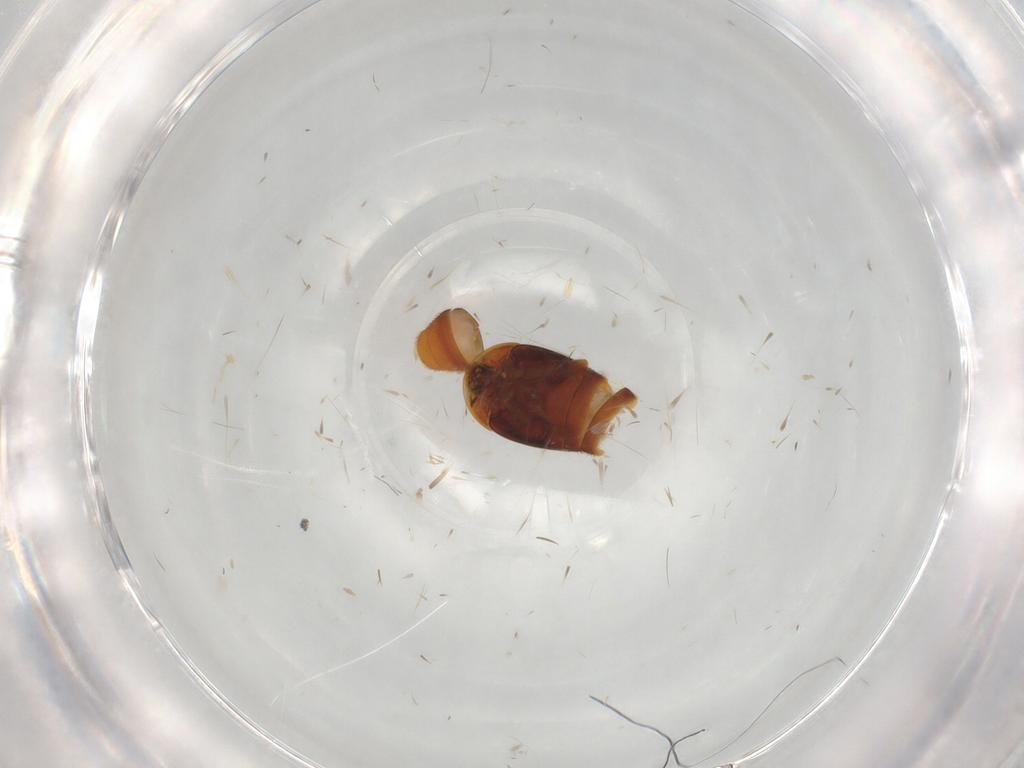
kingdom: Animalia
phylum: Arthropoda
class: Insecta
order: Coleoptera
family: Corylophidae
